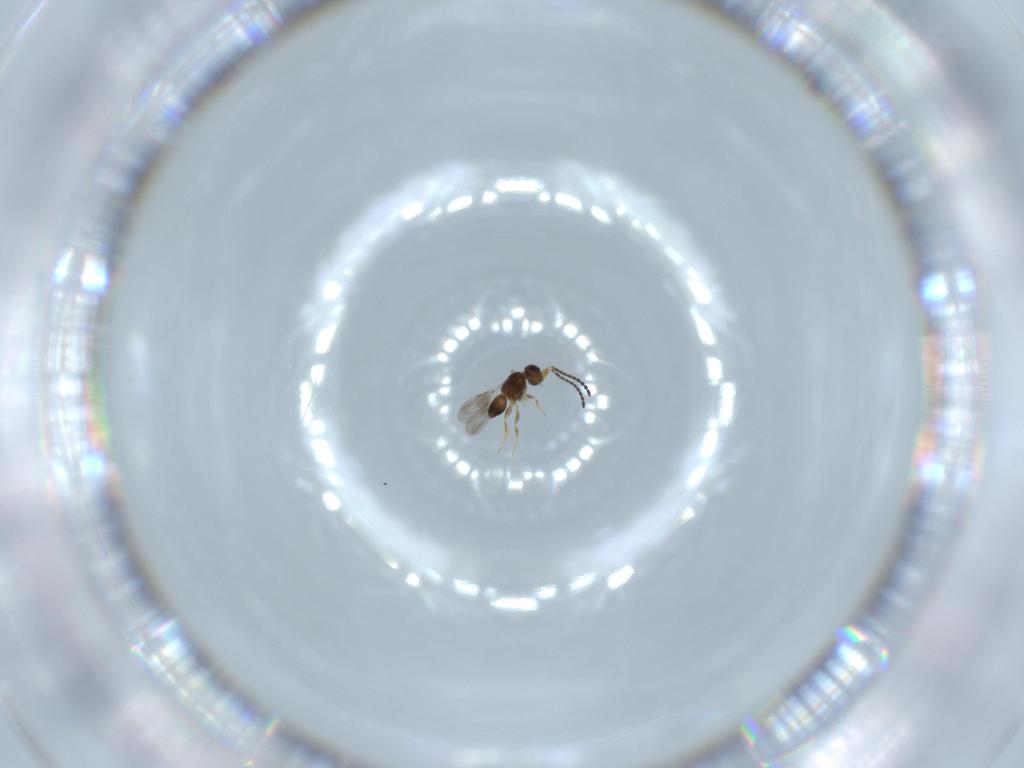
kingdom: Animalia
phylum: Arthropoda
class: Insecta
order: Hymenoptera
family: Ceraphronidae
